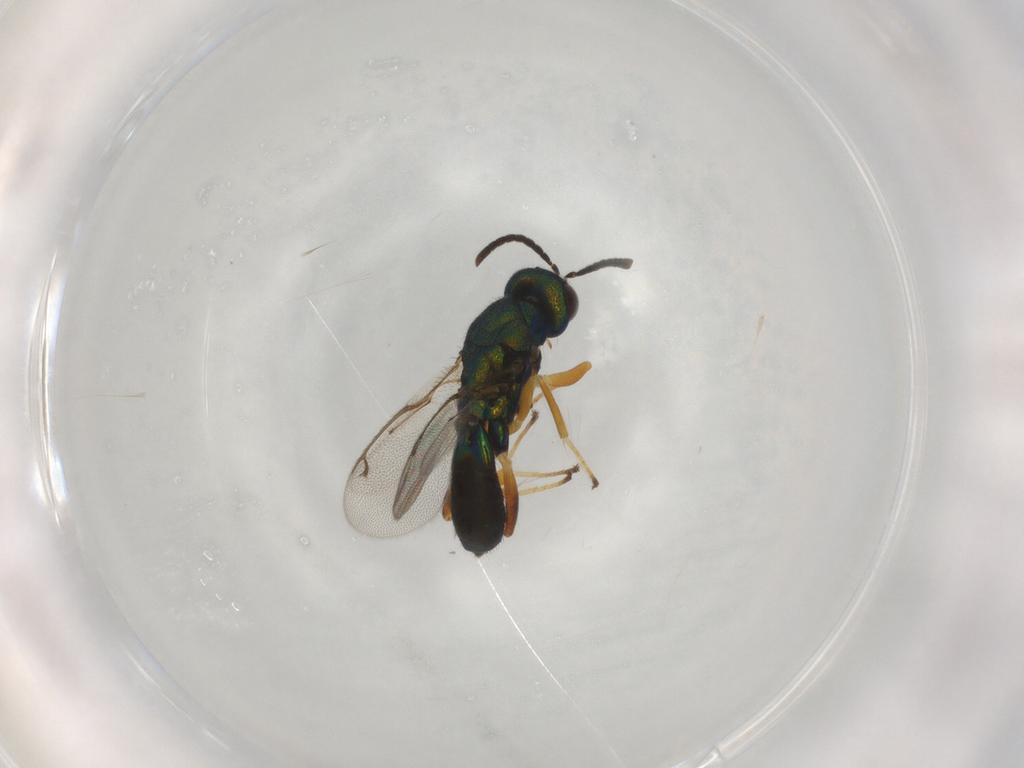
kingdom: Animalia
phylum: Arthropoda
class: Insecta
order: Hymenoptera
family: Eupelmidae
